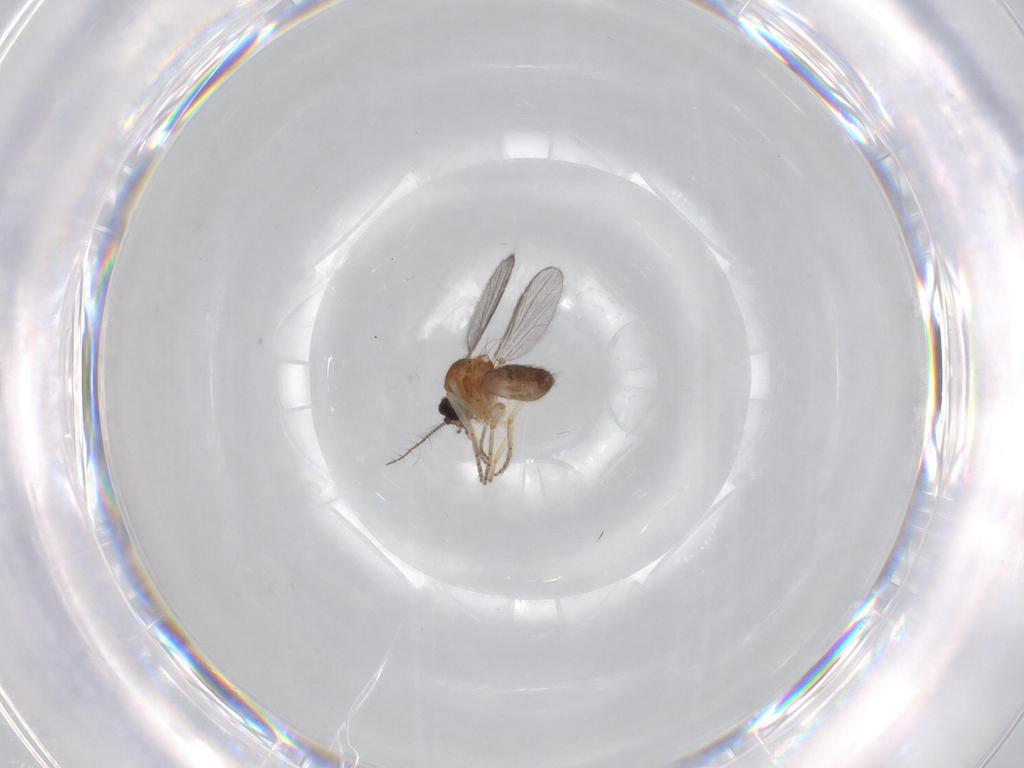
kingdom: Animalia
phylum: Arthropoda
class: Insecta
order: Diptera
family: Ceratopogonidae
